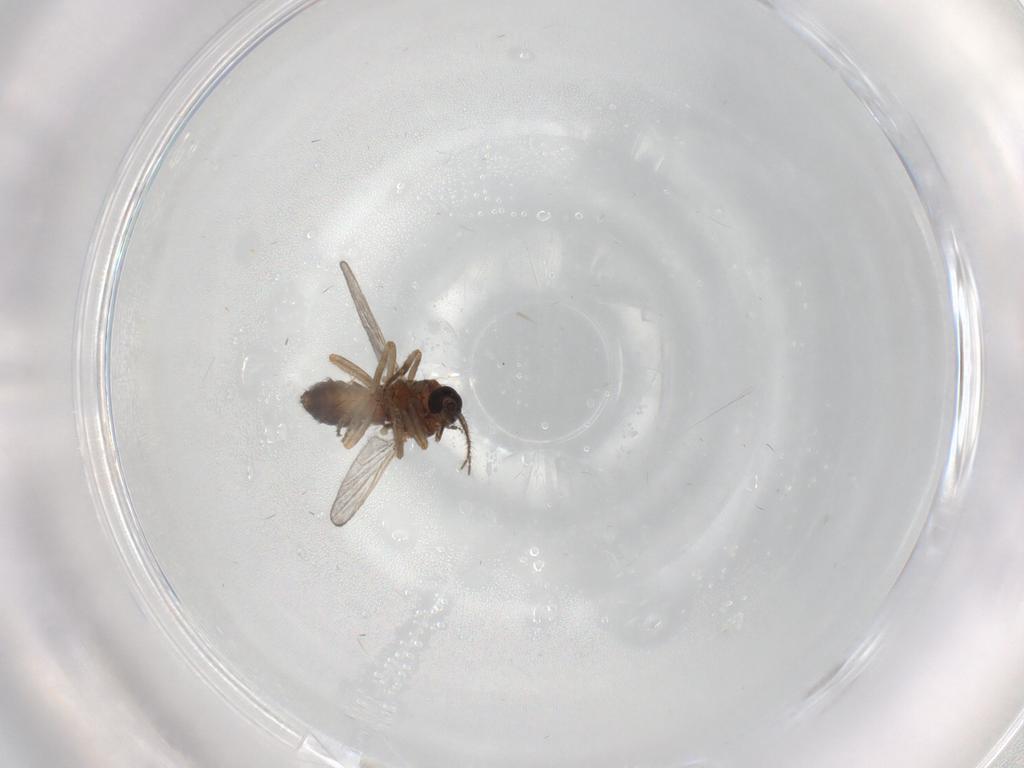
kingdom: Animalia
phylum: Arthropoda
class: Insecta
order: Diptera
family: Ceratopogonidae
